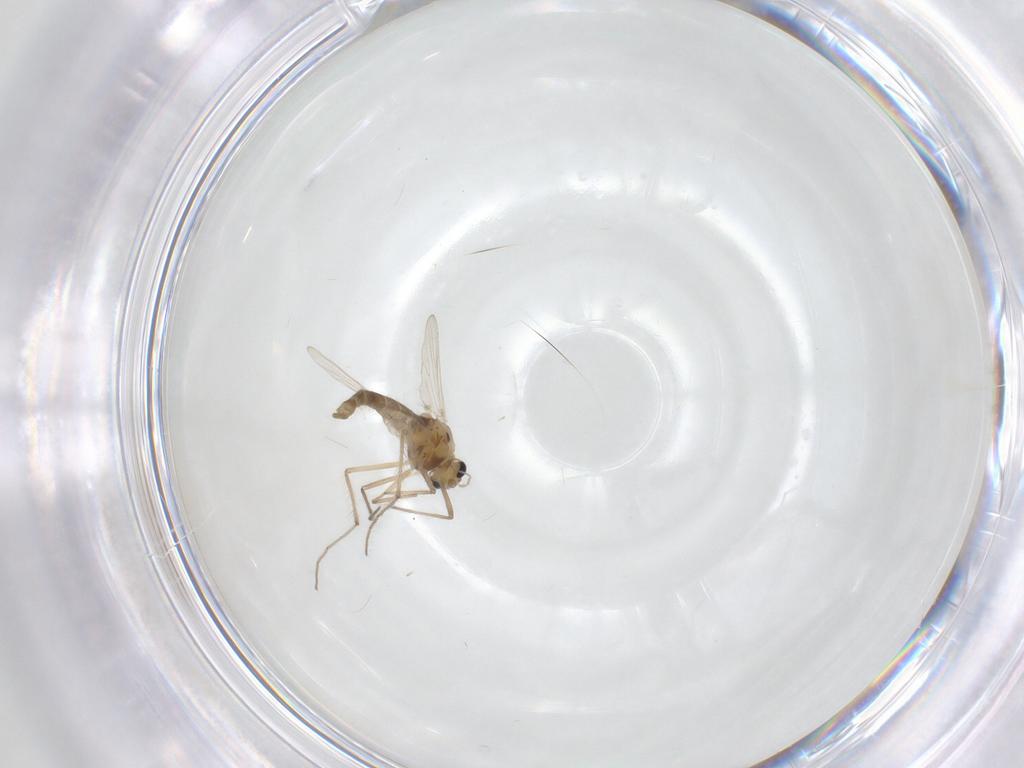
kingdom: Animalia
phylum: Arthropoda
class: Insecta
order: Diptera
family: Chironomidae
